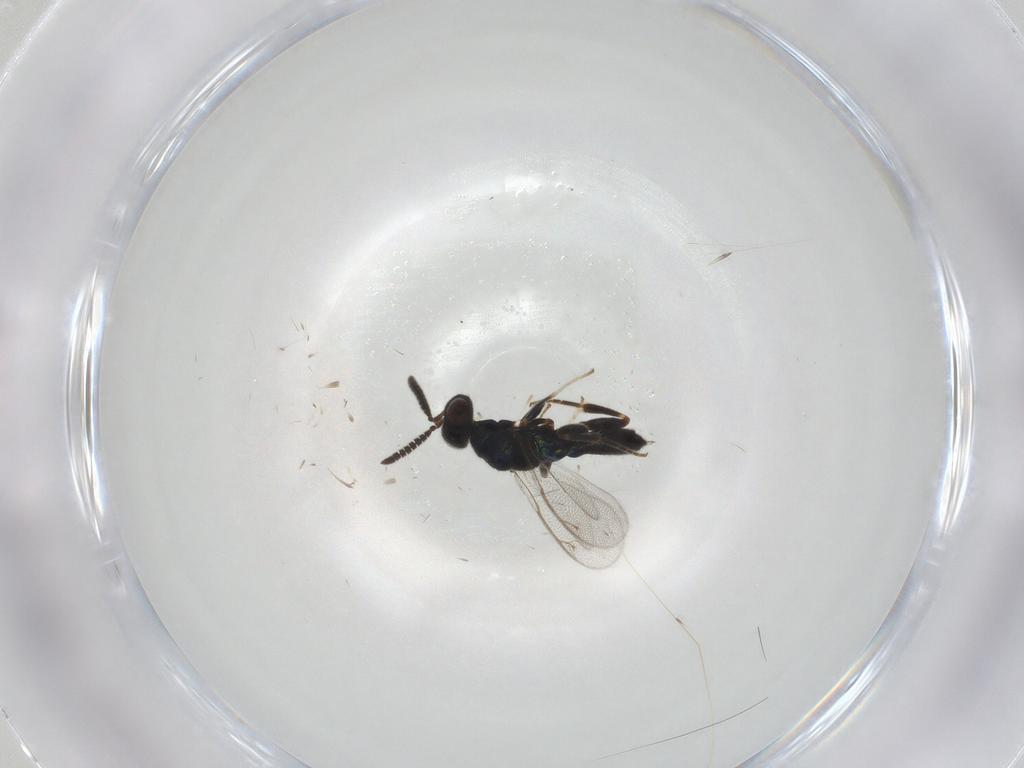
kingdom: Animalia
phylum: Arthropoda
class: Insecta
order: Hymenoptera
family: Cleonyminae
